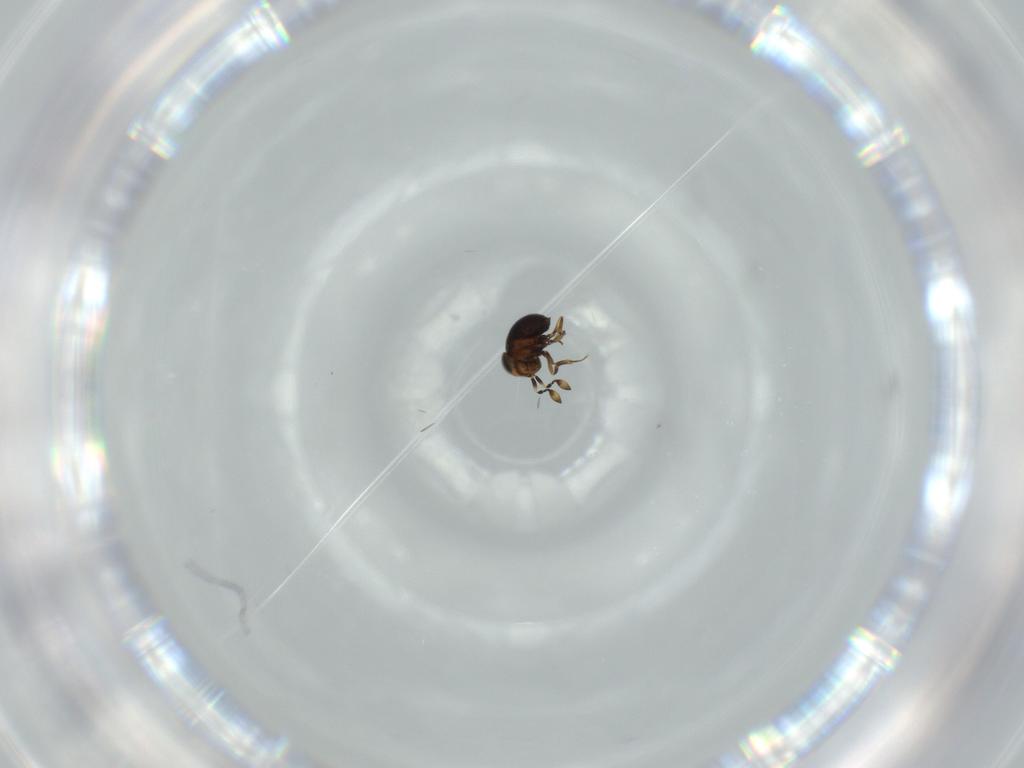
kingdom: Animalia
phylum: Arthropoda
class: Insecta
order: Hymenoptera
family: Scelionidae
